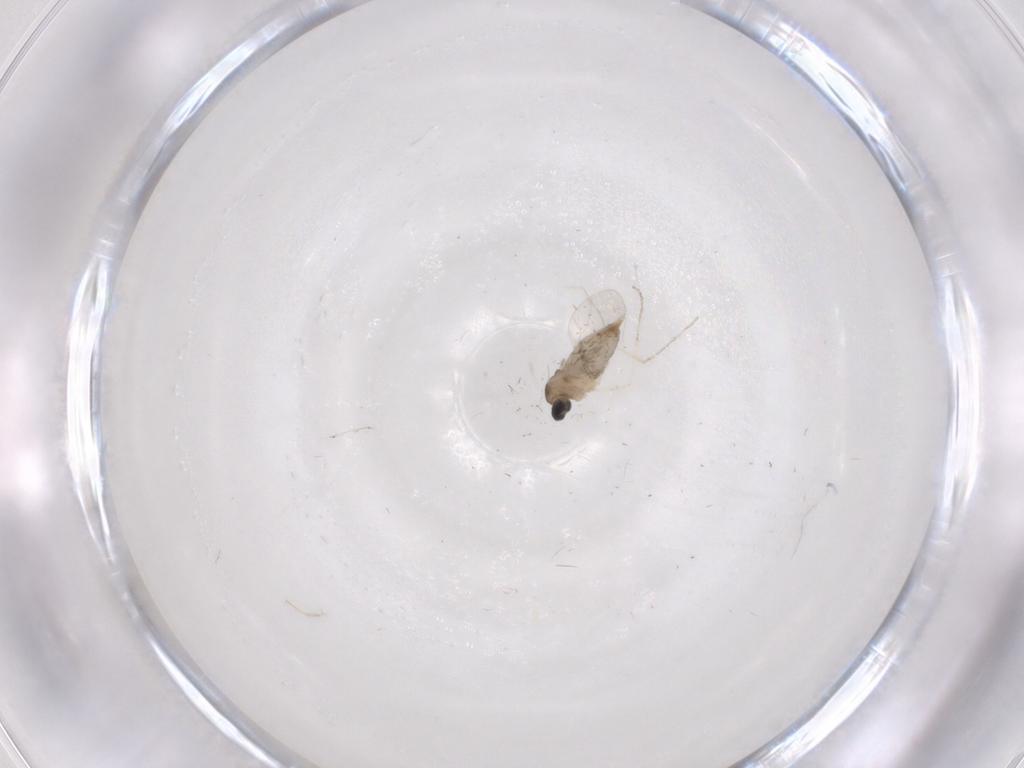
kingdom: Animalia
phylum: Arthropoda
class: Insecta
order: Diptera
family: Cecidomyiidae
